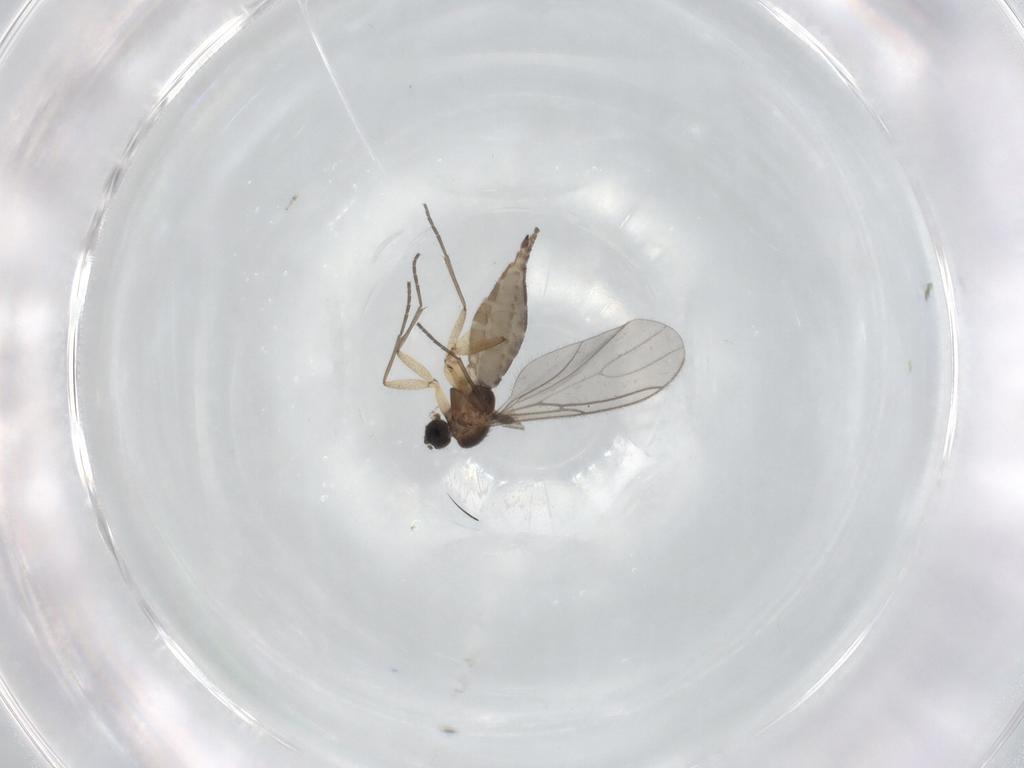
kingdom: Animalia
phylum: Arthropoda
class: Insecta
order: Diptera
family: Sciaridae
